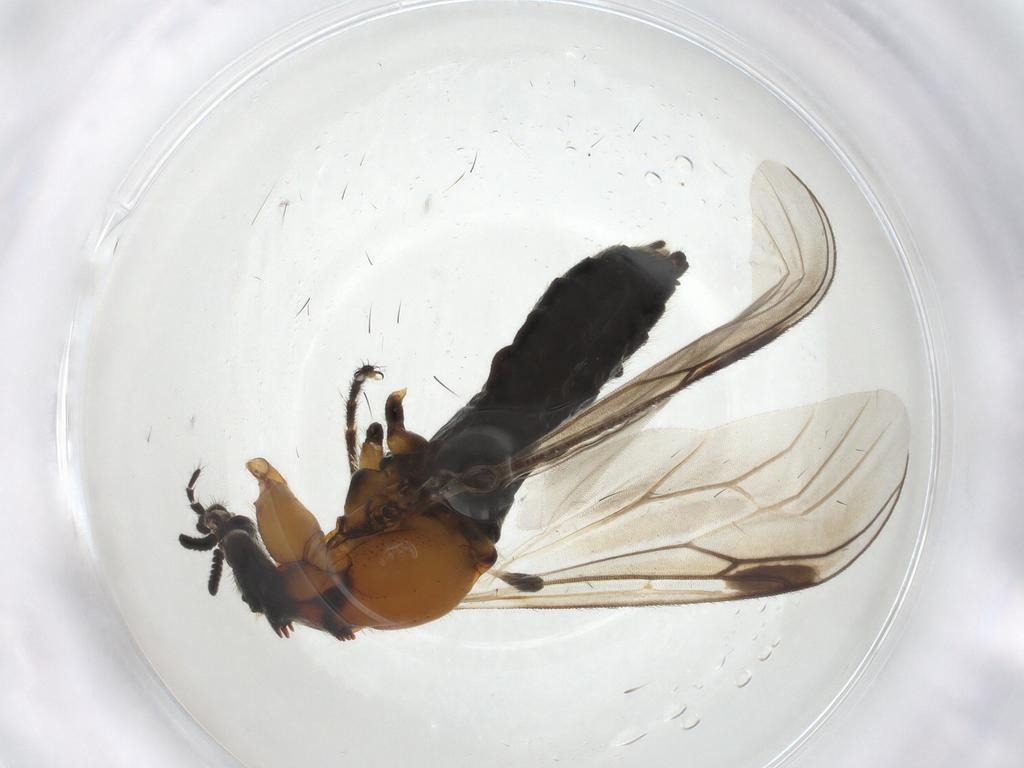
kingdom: Animalia
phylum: Arthropoda
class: Insecta
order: Diptera
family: Bibionidae
